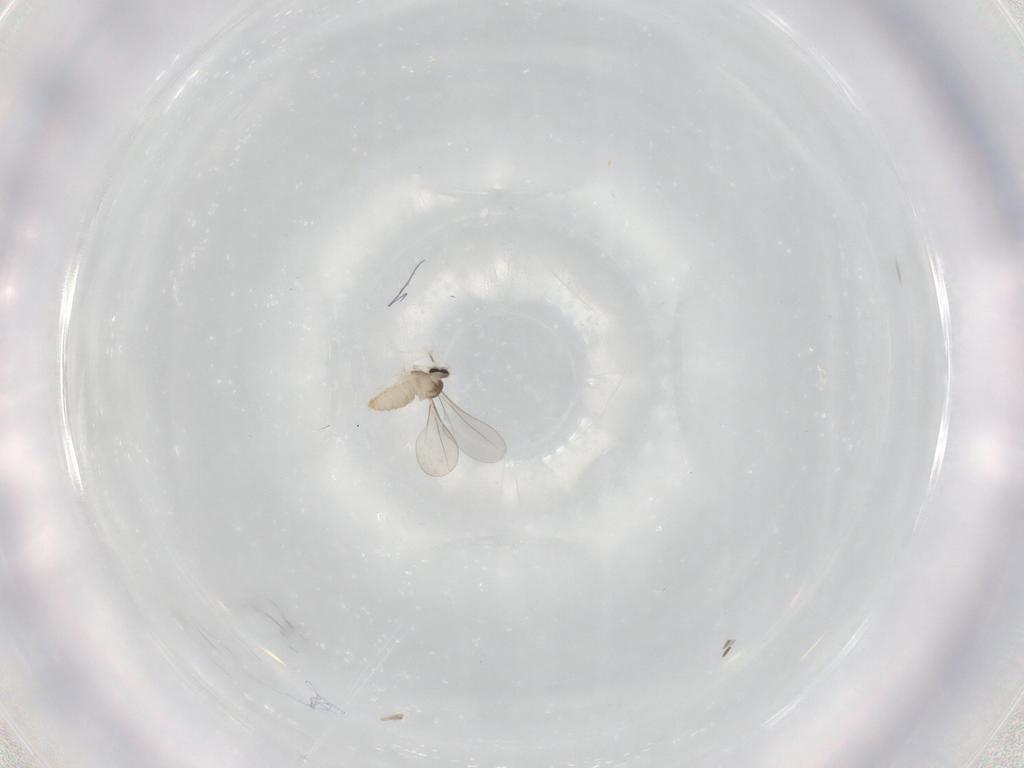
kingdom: Animalia
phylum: Arthropoda
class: Insecta
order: Diptera
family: Cecidomyiidae
